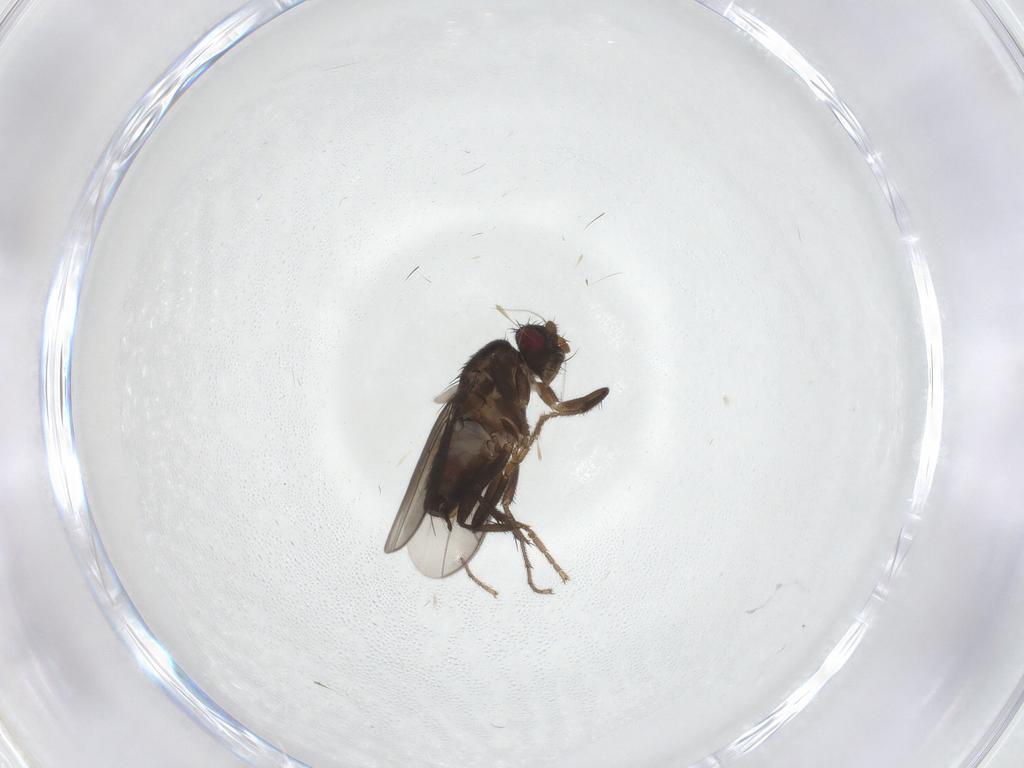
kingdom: Animalia
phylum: Arthropoda
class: Insecta
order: Diptera
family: Sphaeroceridae
